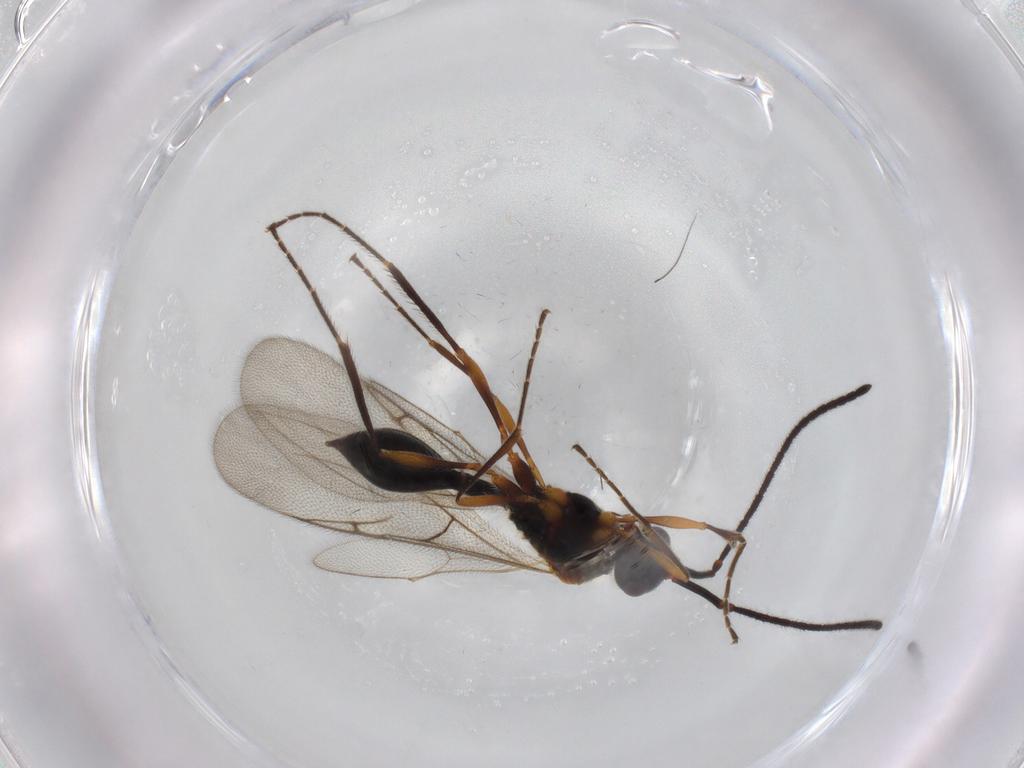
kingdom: Animalia
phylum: Arthropoda
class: Insecta
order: Hymenoptera
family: Diapriidae
